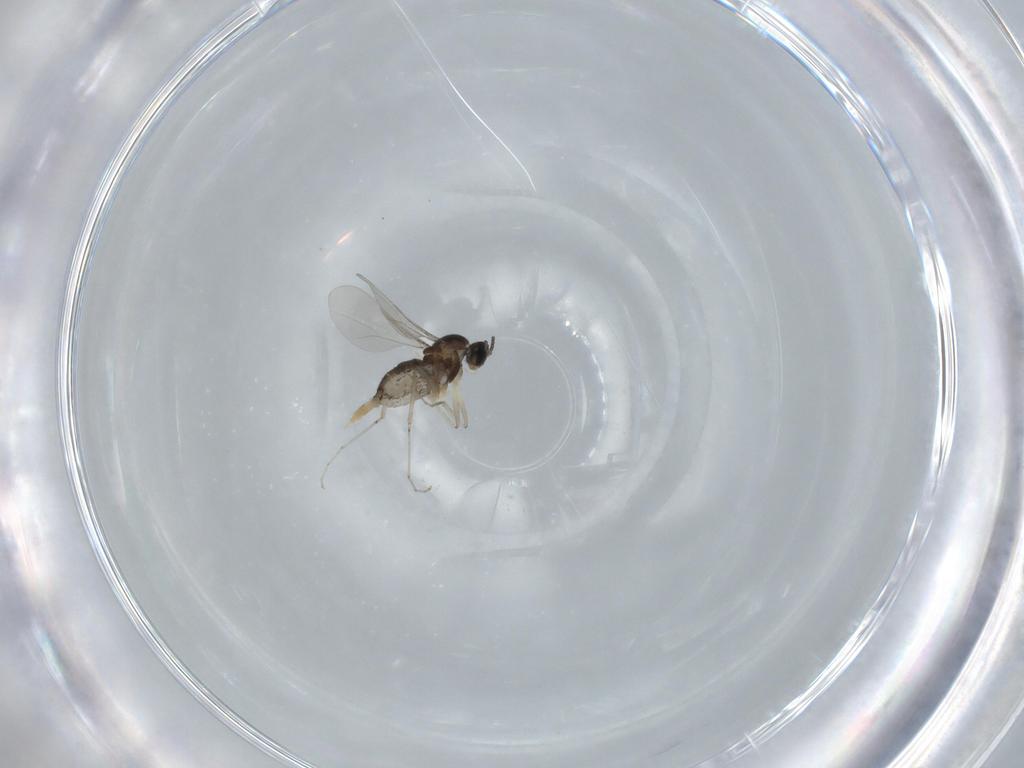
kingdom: Animalia
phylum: Arthropoda
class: Insecta
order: Diptera
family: Cecidomyiidae
